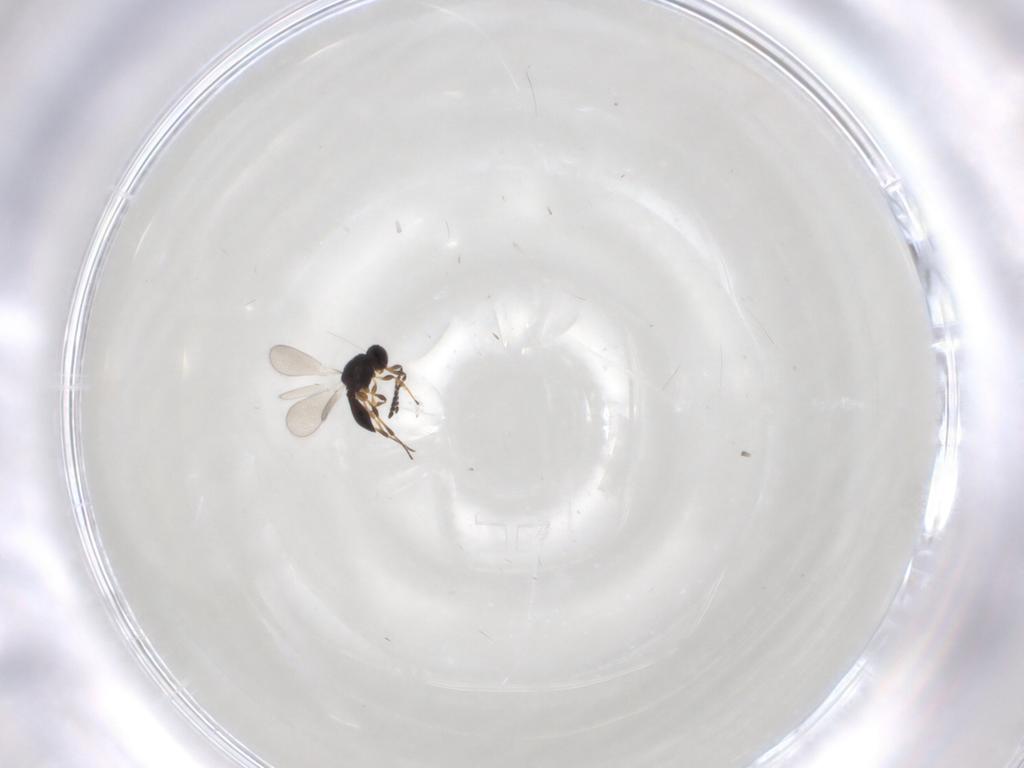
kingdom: Animalia
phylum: Arthropoda
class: Insecta
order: Hymenoptera
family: Platygastridae
